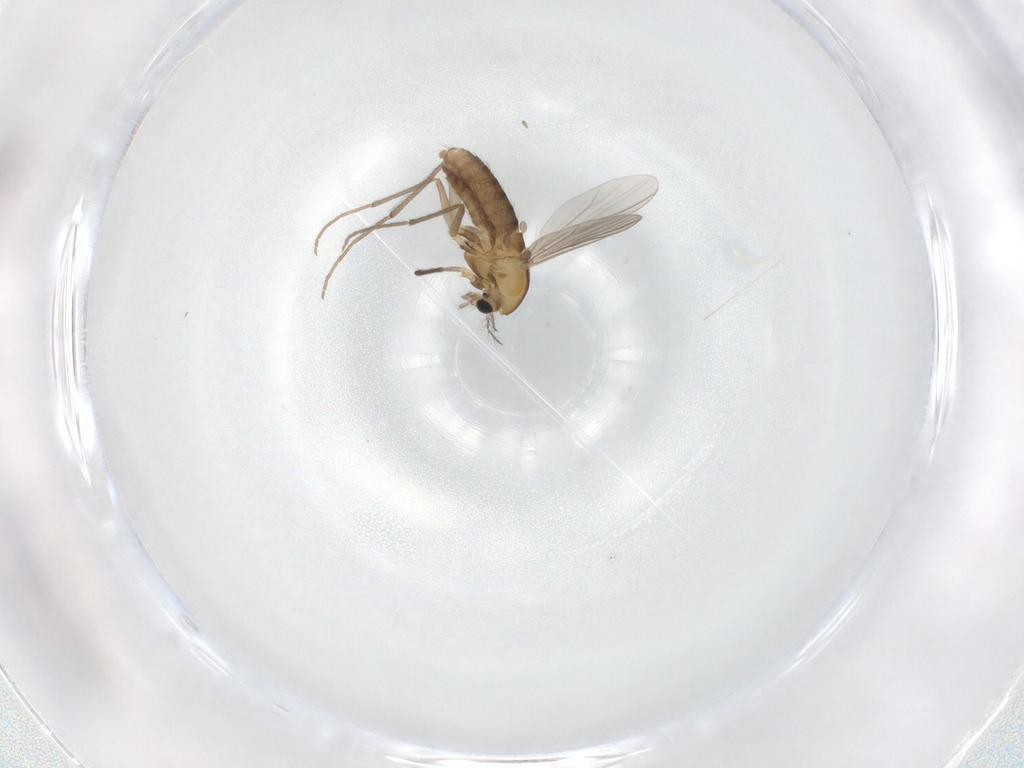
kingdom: Animalia
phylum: Arthropoda
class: Insecta
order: Diptera
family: Chironomidae
